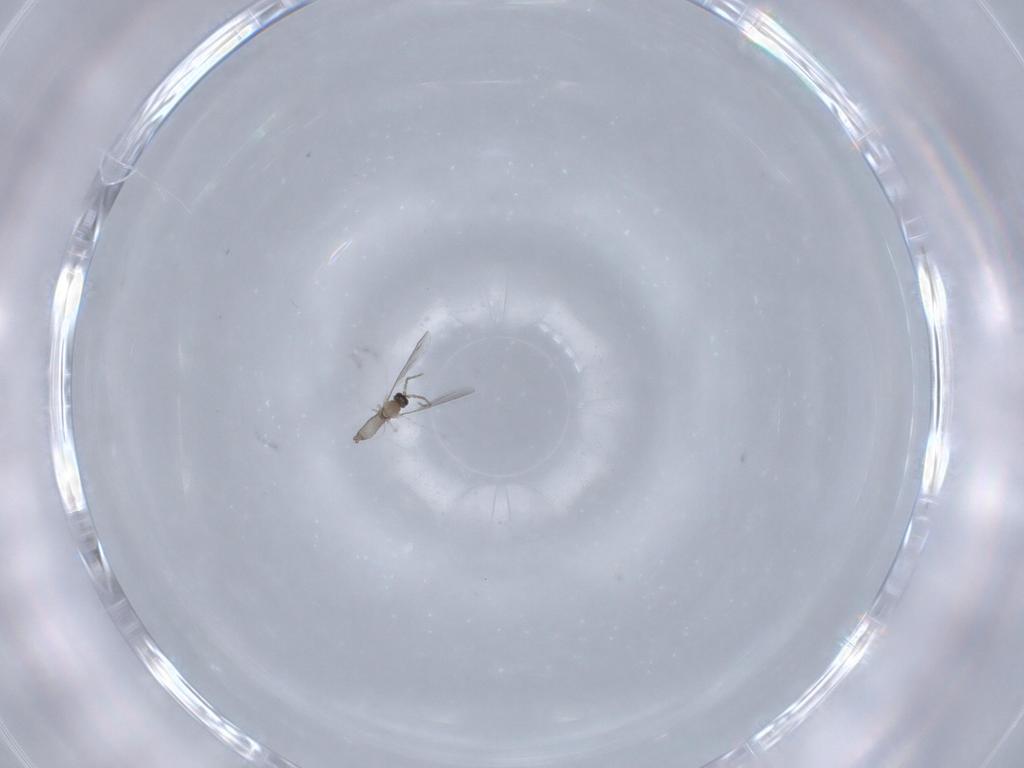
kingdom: Animalia
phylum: Arthropoda
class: Insecta
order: Diptera
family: Cecidomyiidae
